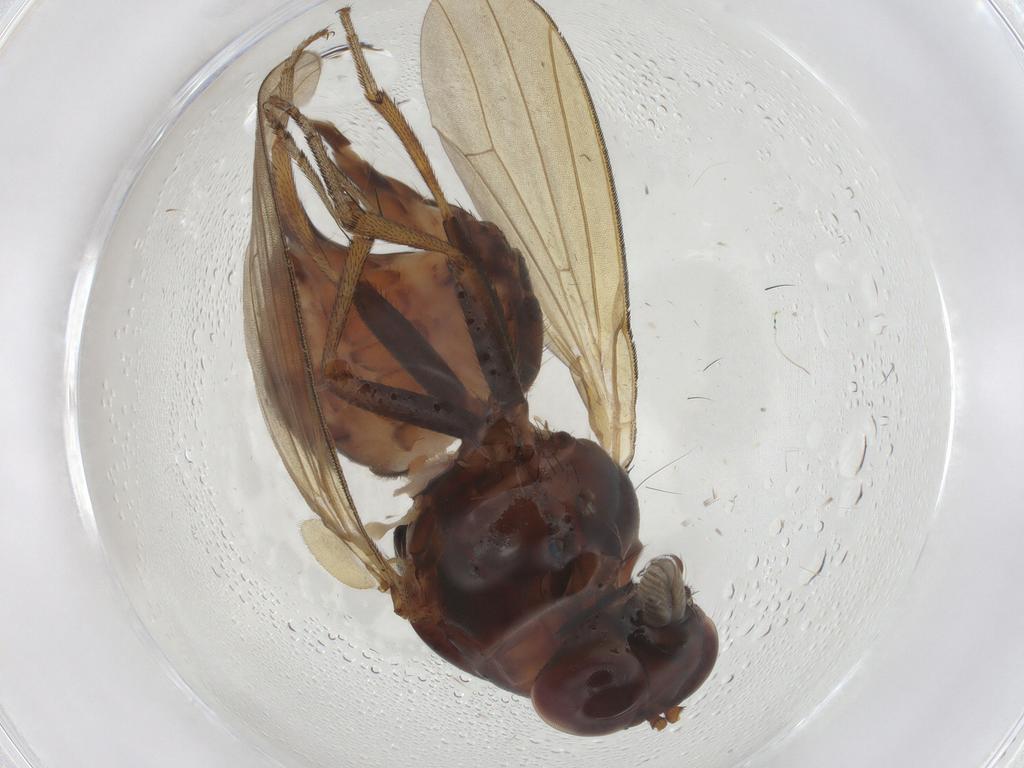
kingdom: Animalia
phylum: Arthropoda
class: Insecta
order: Diptera
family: Micropezidae
